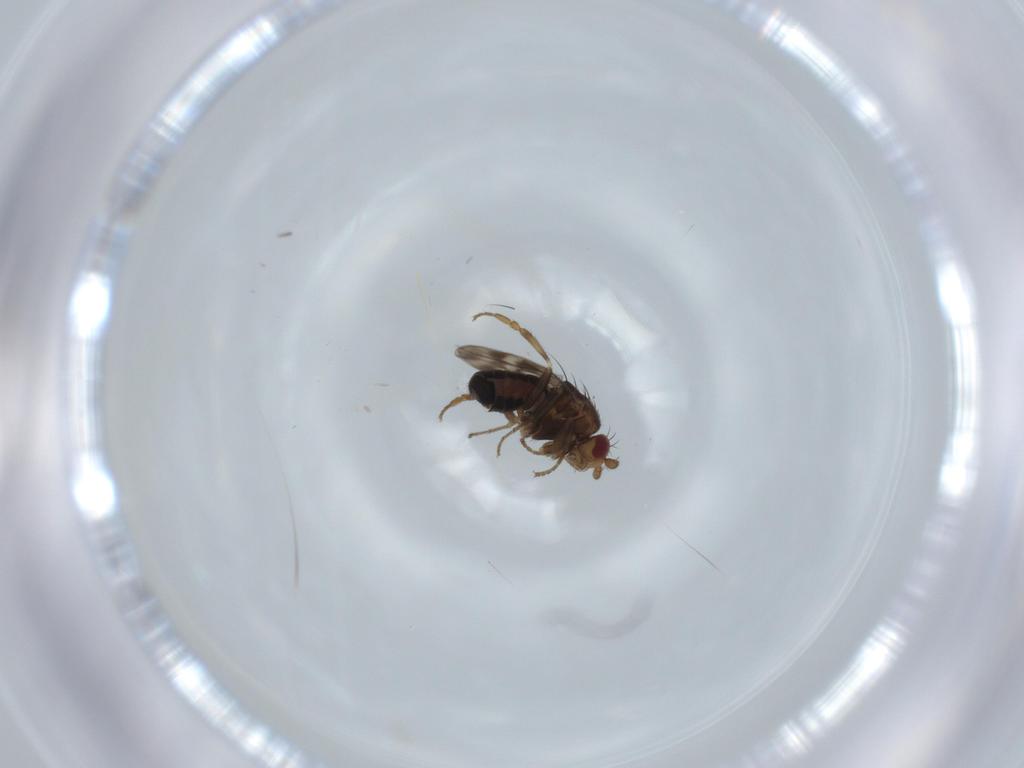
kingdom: Animalia
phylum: Arthropoda
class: Insecta
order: Diptera
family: Sphaeroceridae
